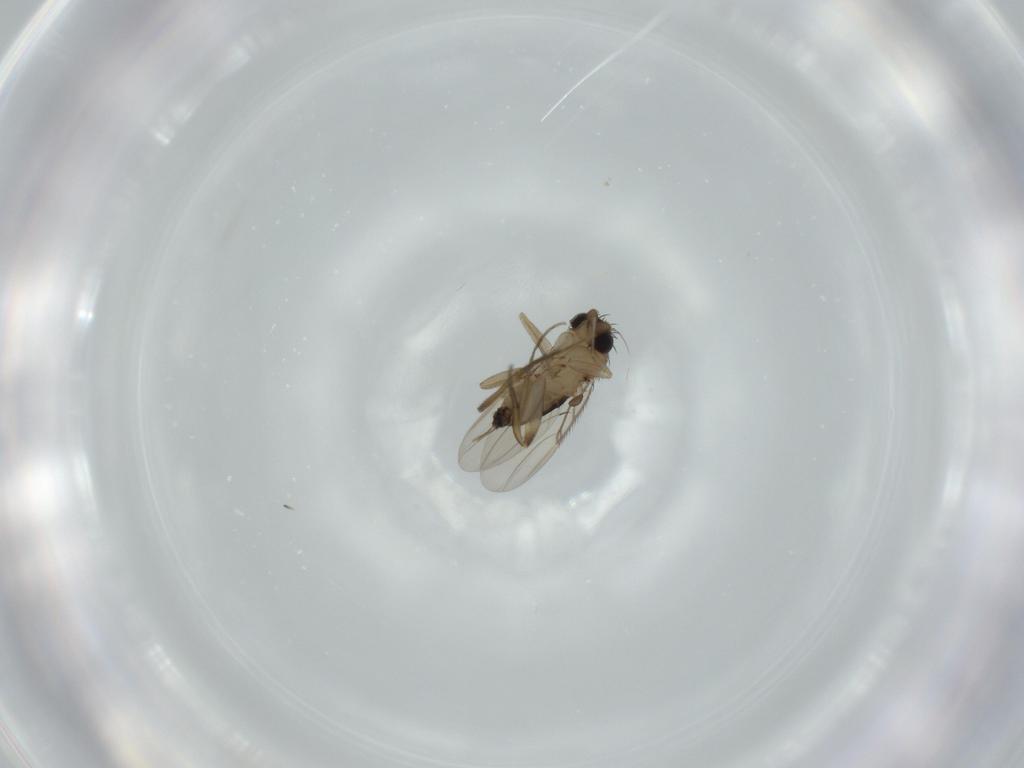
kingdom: Animalia
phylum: Arthropoda
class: Insecta
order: Diptera
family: Phoridae
